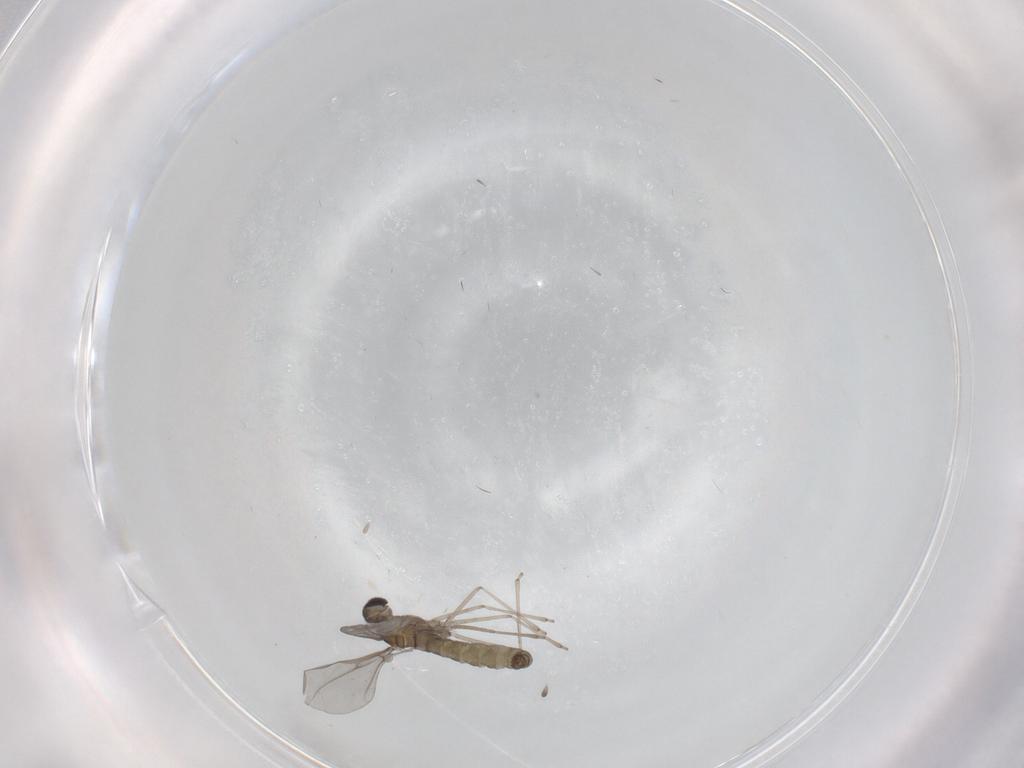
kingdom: Animalia
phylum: Arthropoda
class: Insecta
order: Diptera
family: Cecidomyiidae
